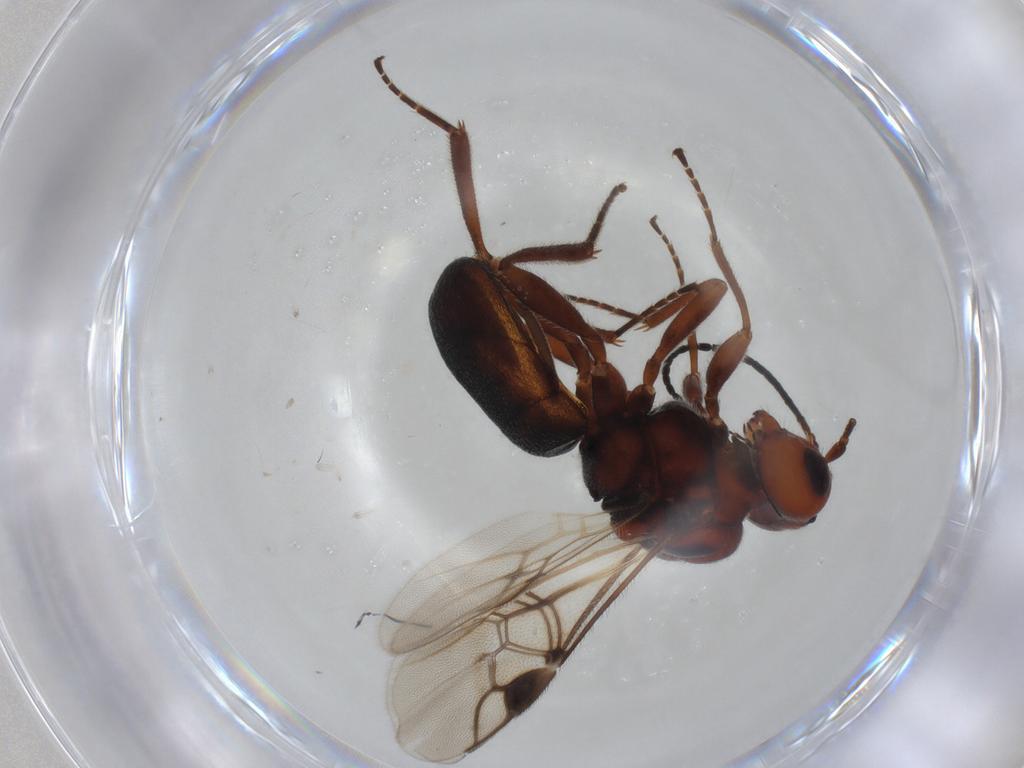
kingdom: Animalia
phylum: Arthropoda
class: Insecta
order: Hymenoptera
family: Braconidae
